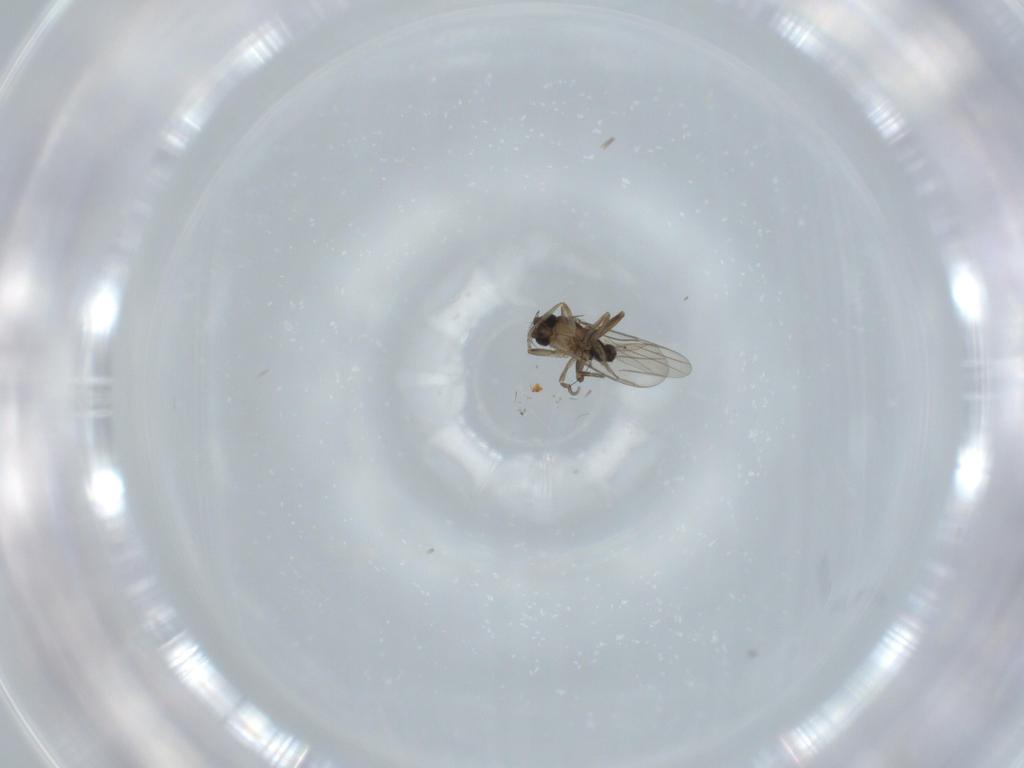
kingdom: Animalia
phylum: Arthropoda
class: Insecta
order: Diptera
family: Phoridae
